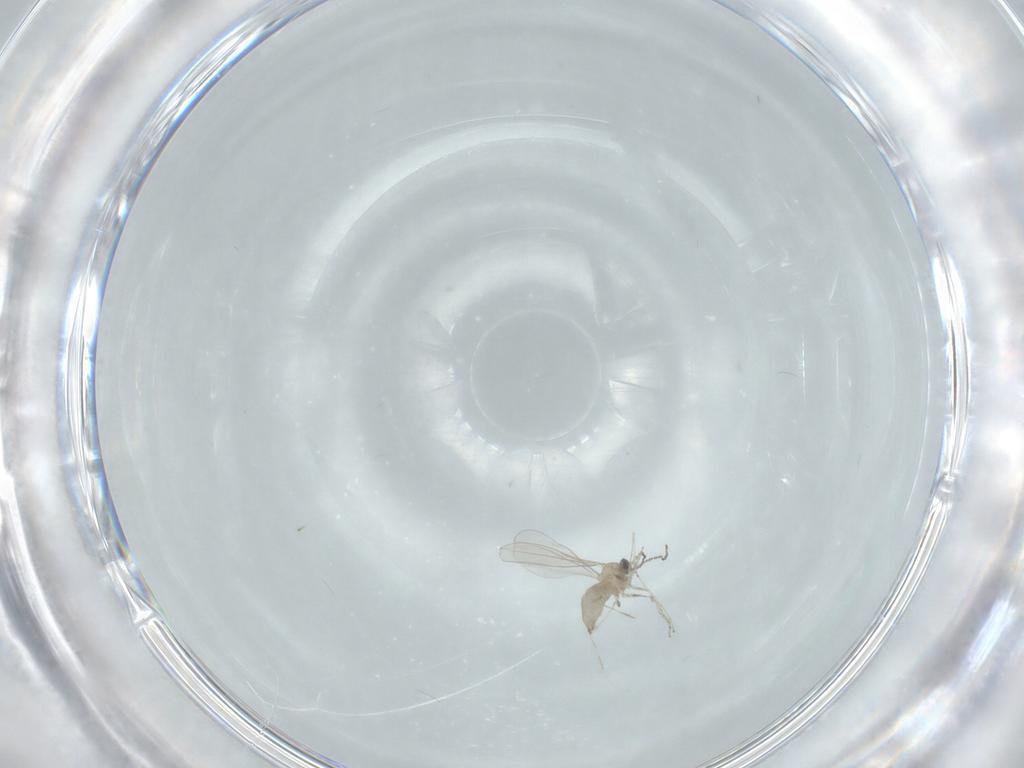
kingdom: Animalia
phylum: Arthropoda
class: Insecta
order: Diptera
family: Cecidomyiidae
